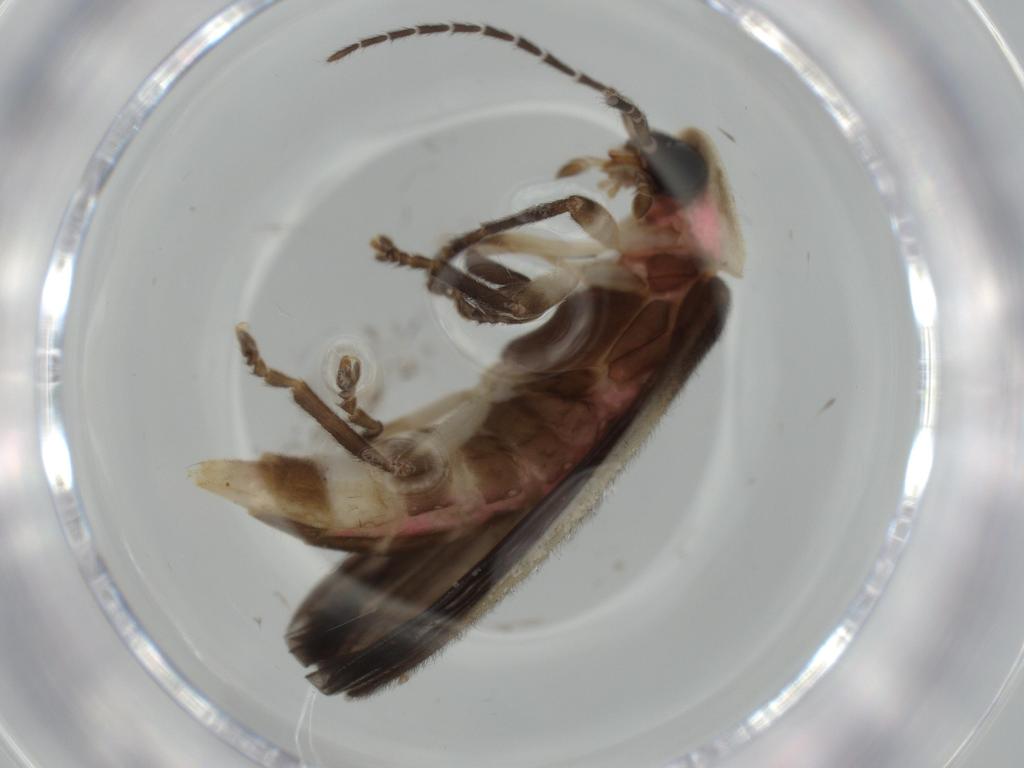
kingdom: Animalia
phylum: Arthropoda
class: Insecta
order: Coleoptera
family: Lampyridae
